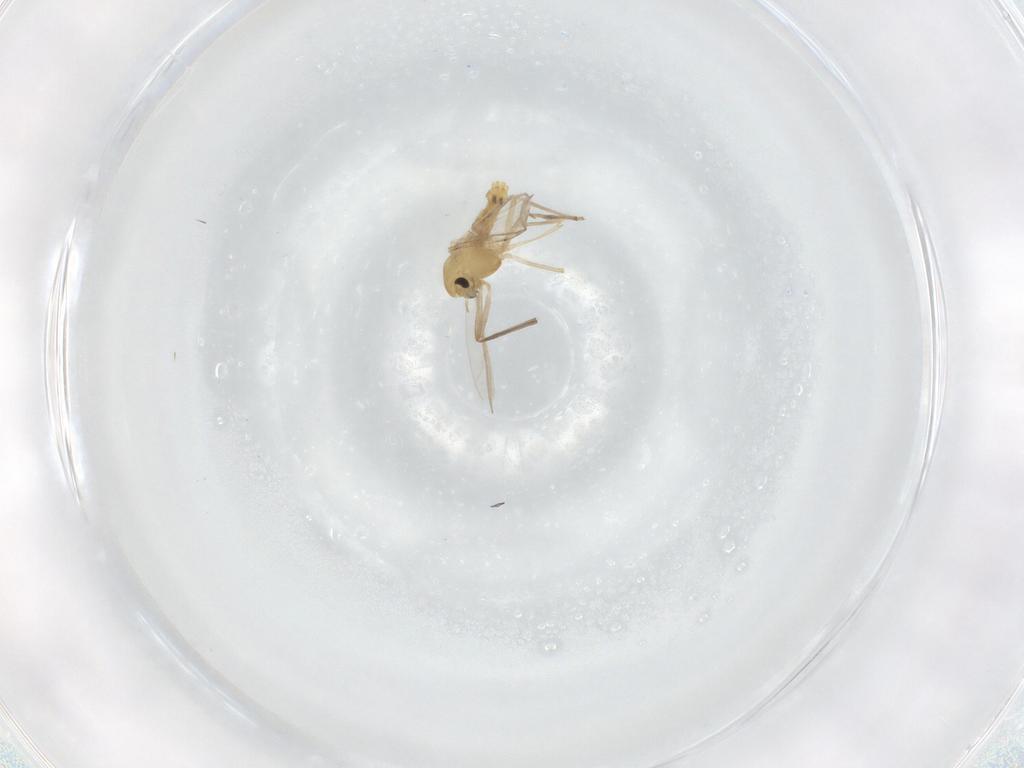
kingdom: Animalia
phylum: Arthropoda
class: Insecta
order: Diptera
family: Chironomidae
